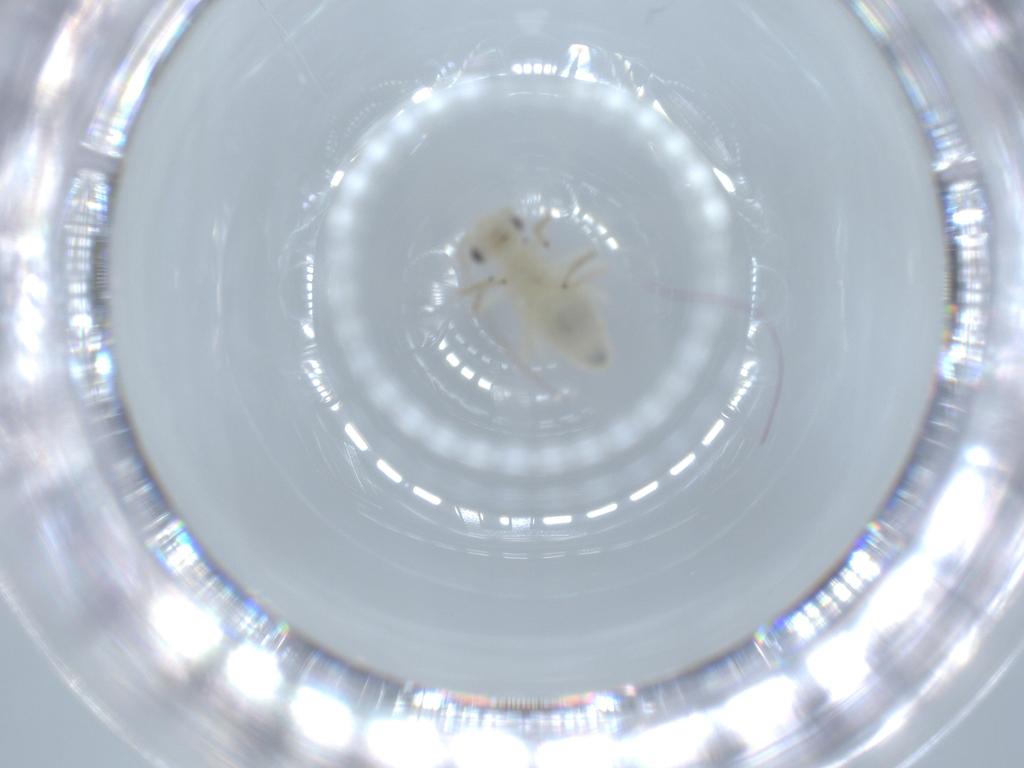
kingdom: Animalia
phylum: Arthropoda
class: Insecta
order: Psocodea
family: Caeciliusidae
